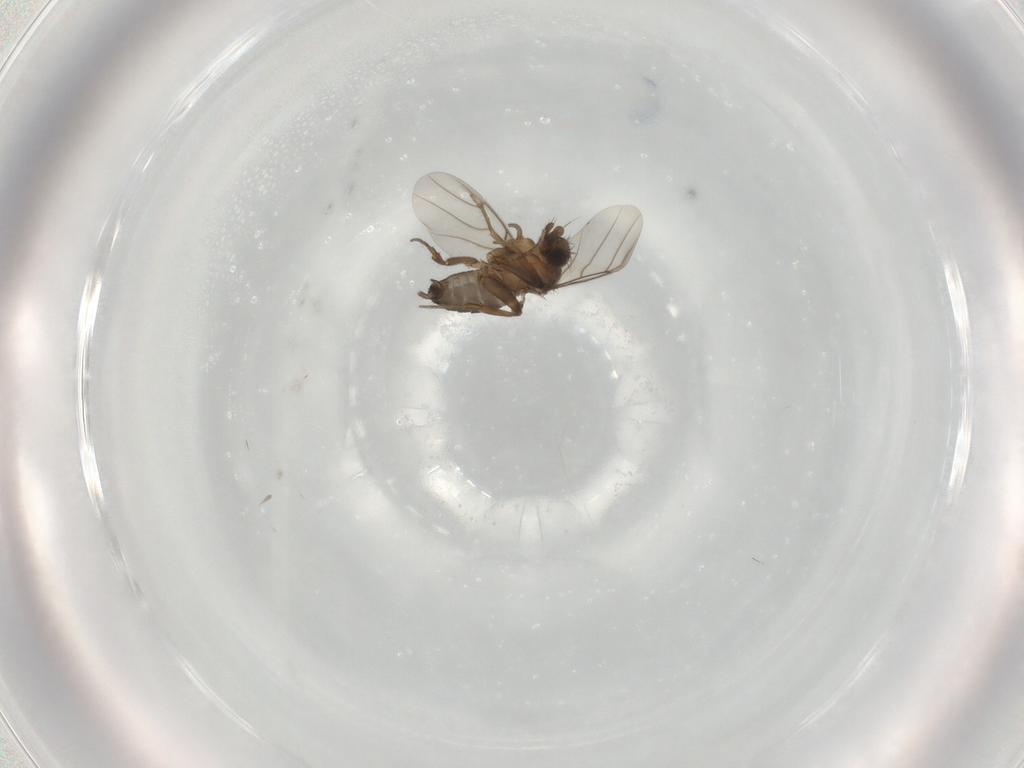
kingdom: Animalia
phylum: Arthropoda
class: Insecta
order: Diptera
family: Phoridae
